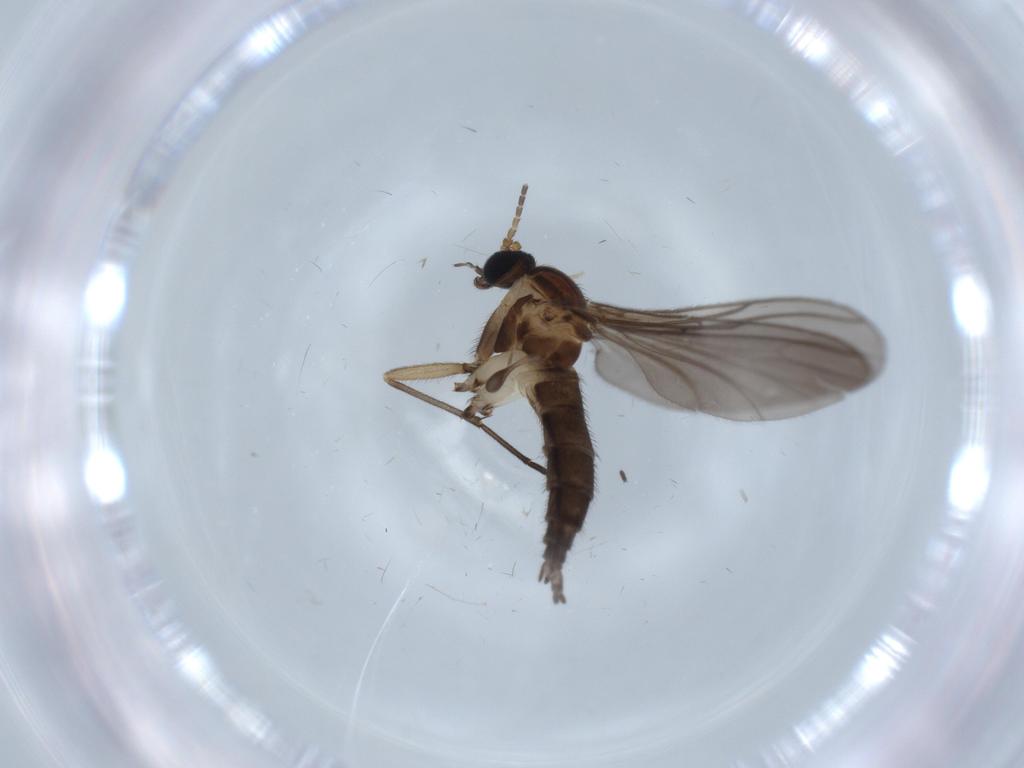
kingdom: Animalia
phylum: Arthropoda
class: Insecta
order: Diptera
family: Sciaridae
